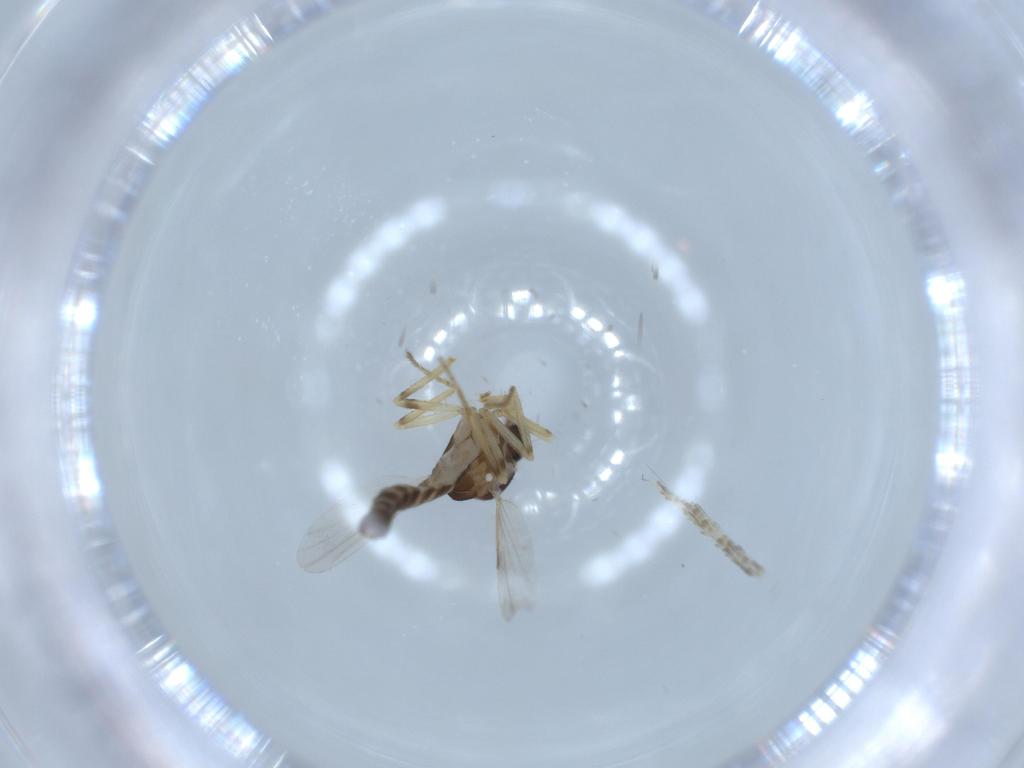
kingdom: Animalia
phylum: Arthropoda
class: Insecta
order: Diptera
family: Ceratopogonidae
